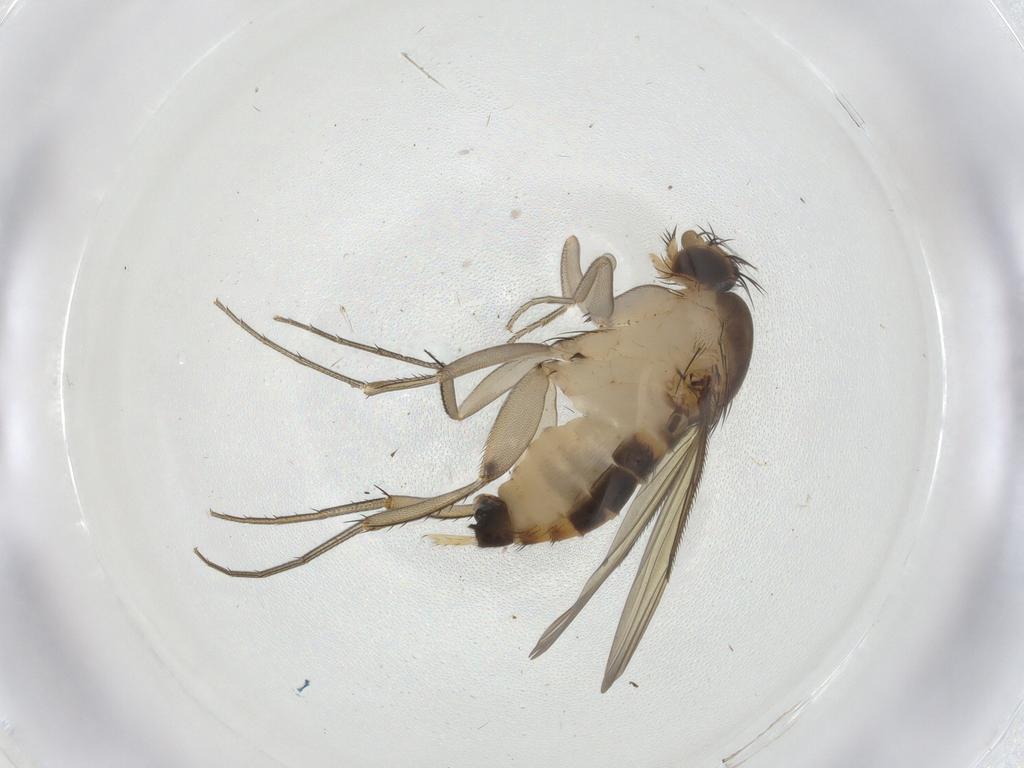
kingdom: Animalia
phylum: Arthropoda
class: Insecta
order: Diptera
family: Phoridae
